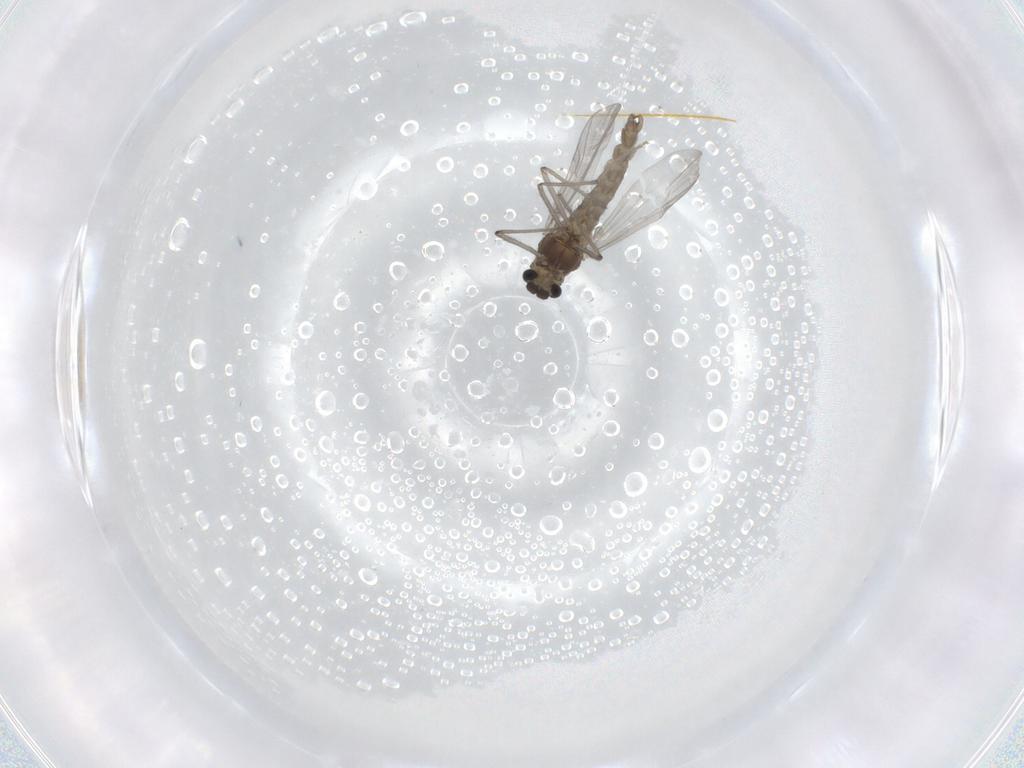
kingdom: Animalia
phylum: Arthropoda
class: Insecta
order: Diptera
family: Chironomidae
